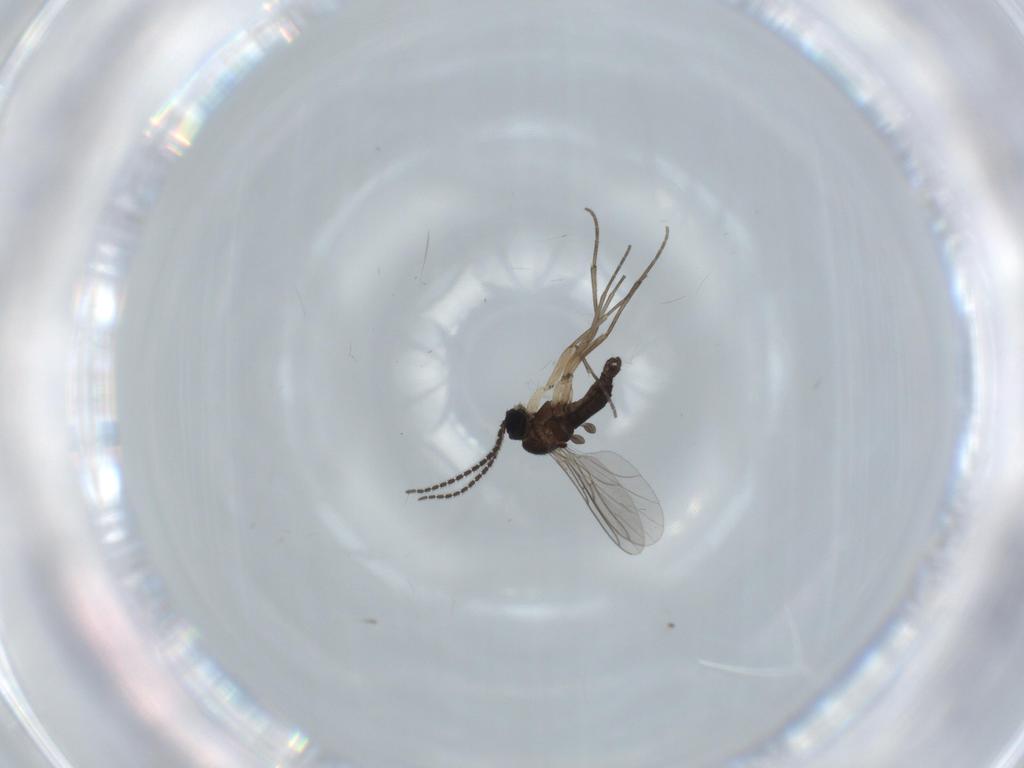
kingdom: Animalia
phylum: Arthropoda
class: Insecta
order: Diptera
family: Sciaridae
